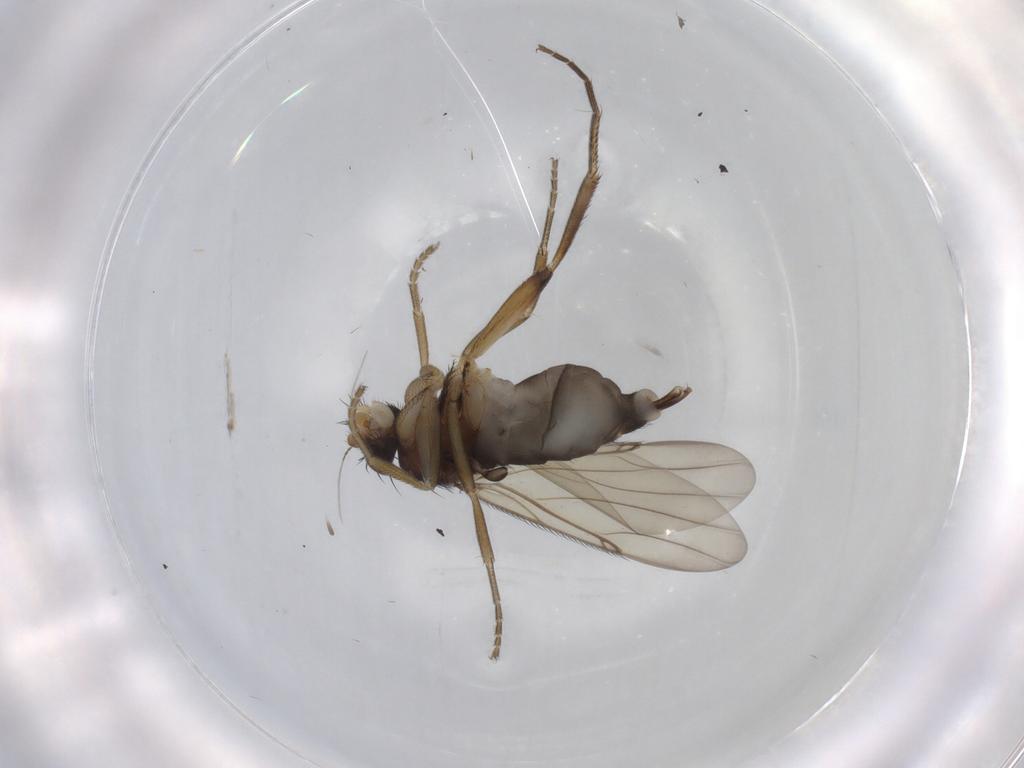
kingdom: Animalia
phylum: Arthropoda
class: Insecta
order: Diptera
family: Phoridae
